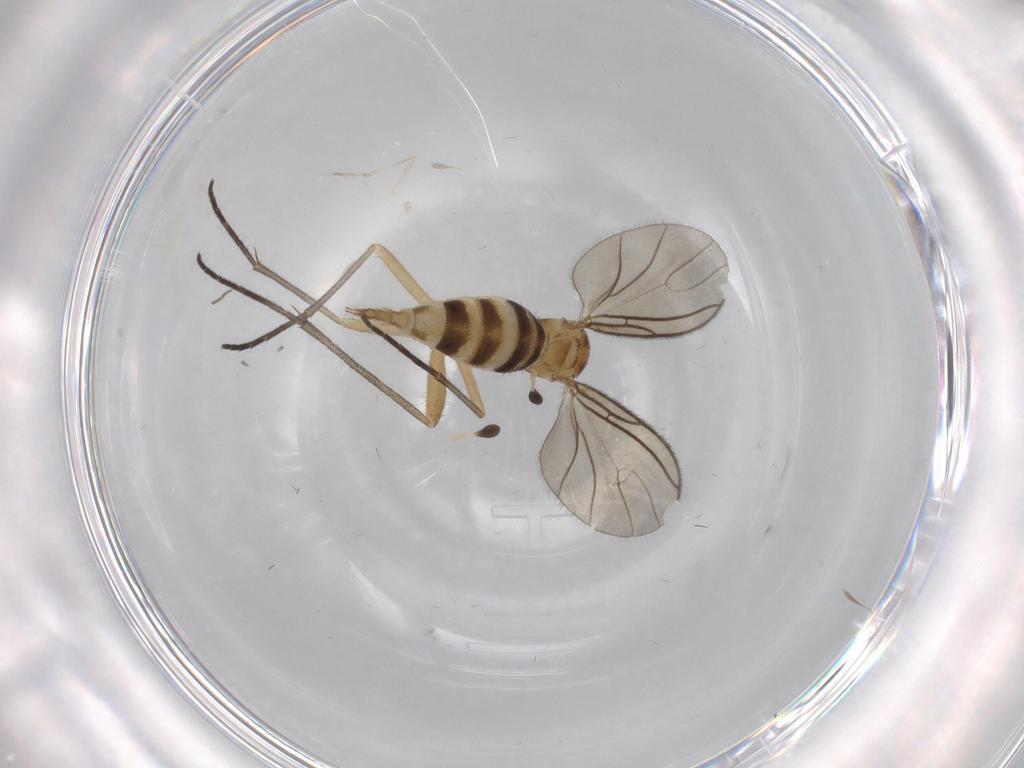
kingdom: Animalia
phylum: Arthropoda
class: Insecta
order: Diptera
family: Sciaridae
